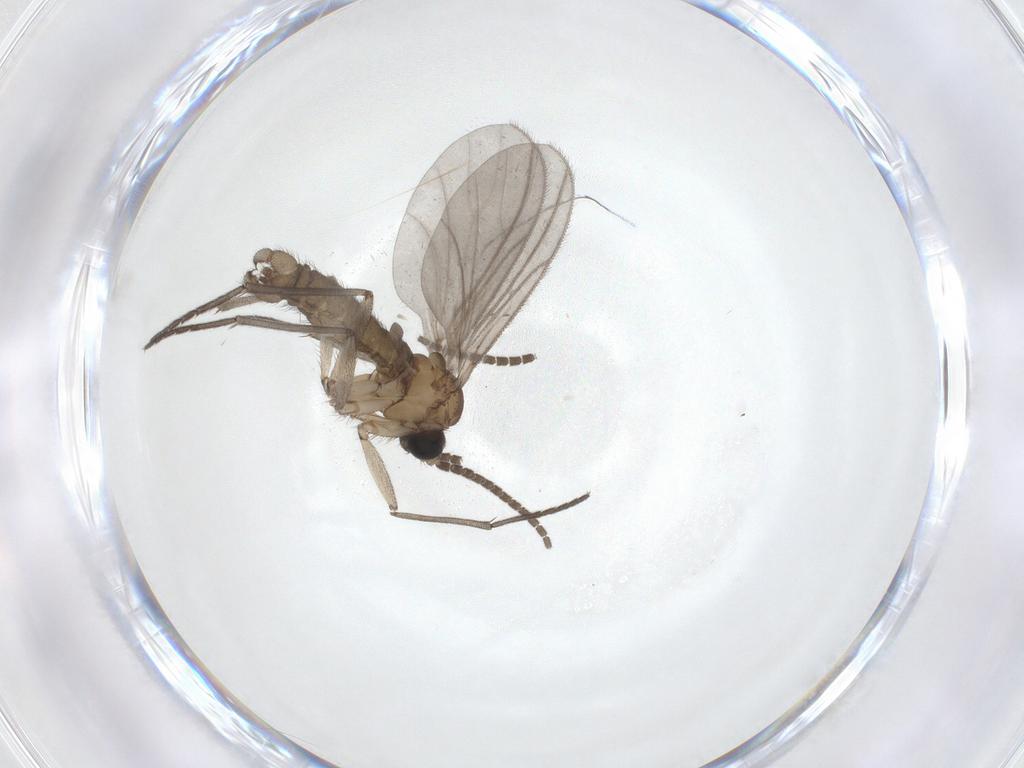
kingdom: Animalia
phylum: Arthropoda
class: Insecta
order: Diptera
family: Sciaridae
